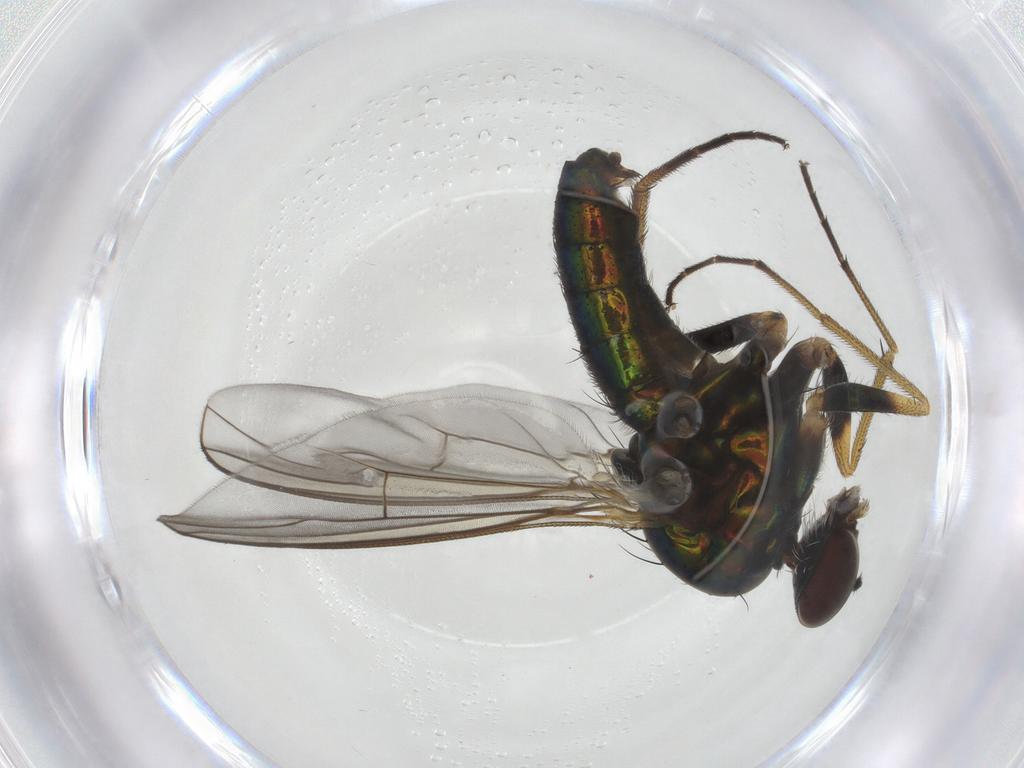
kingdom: Animalia
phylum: Arthropoda
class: Insecta
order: Diptera
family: Dolichopodidae
